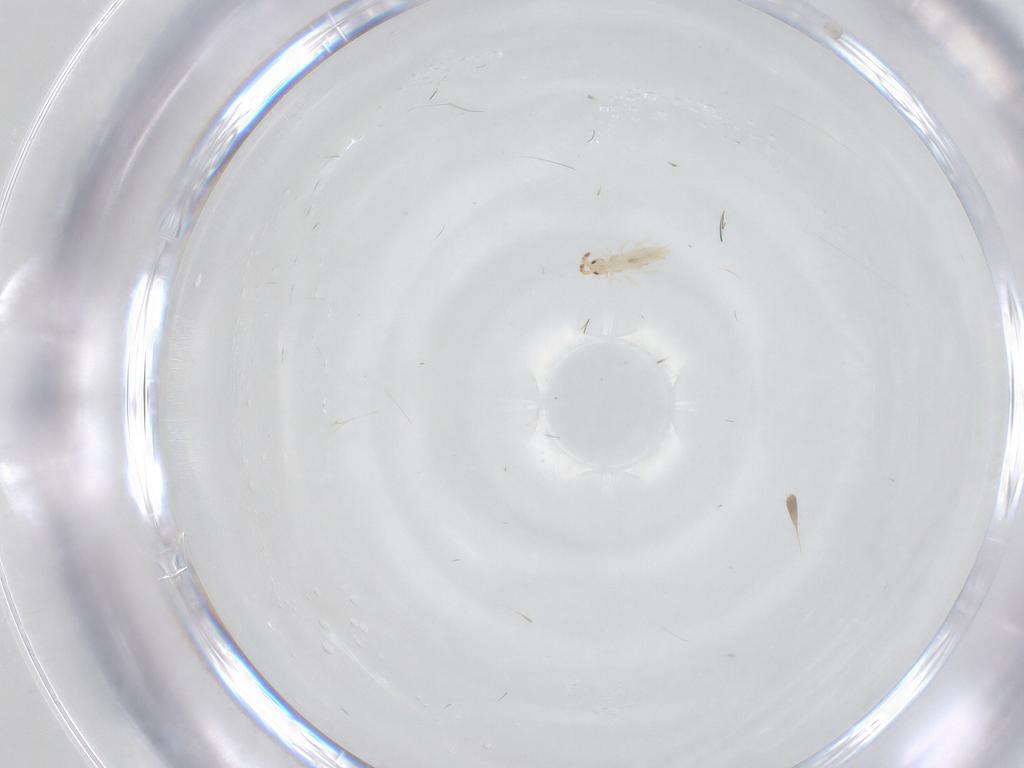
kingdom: Animalia
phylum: Arthropoda
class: Collembola
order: Entomobryomorpha
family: Entomobryidae
